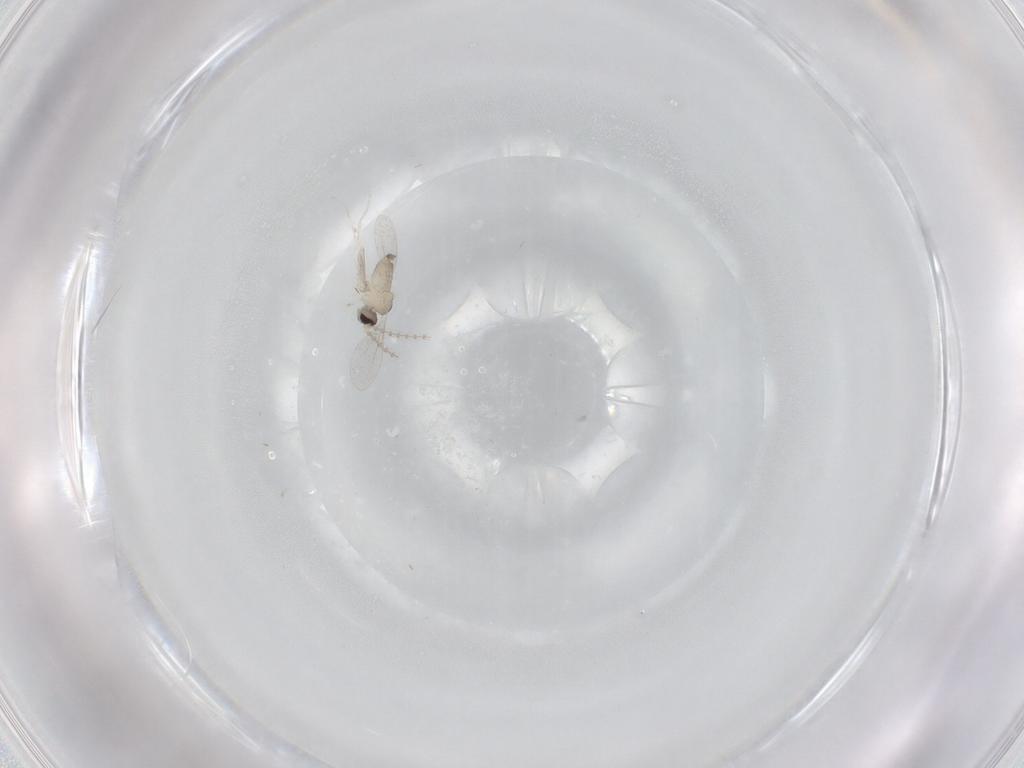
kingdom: Animalia
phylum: Arthropoda
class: Insecta
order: Diptera
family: Cecidomyiidae
